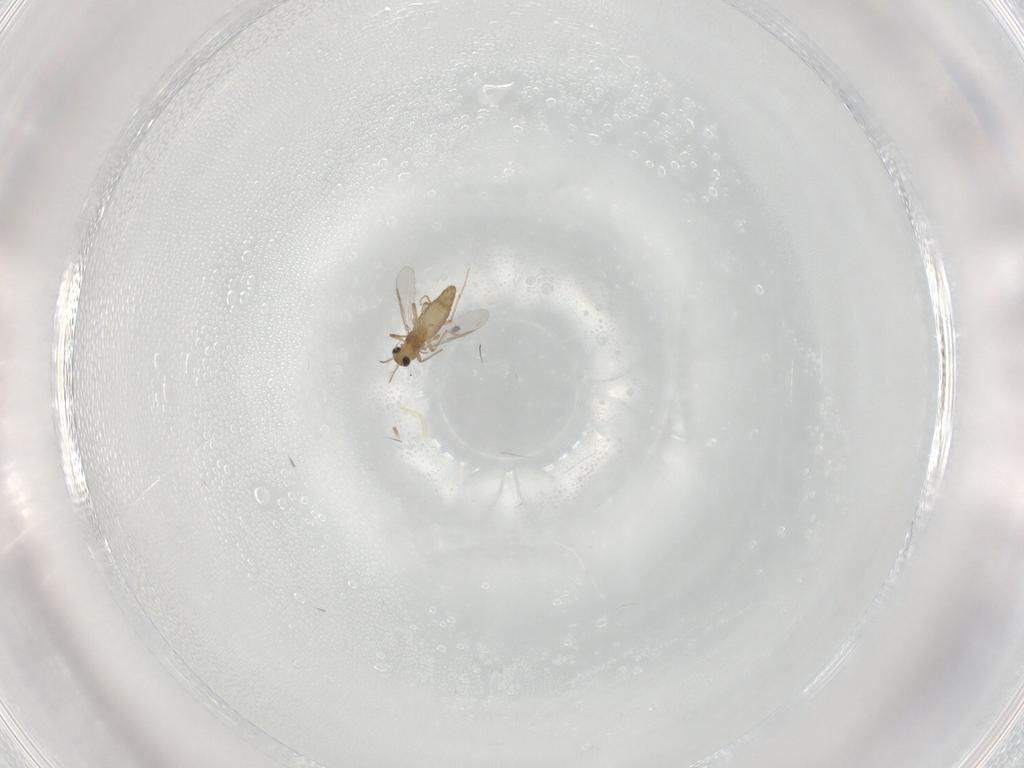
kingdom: Animalia
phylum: Arthropoda
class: Insecta
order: Diptera
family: Chironomidae
